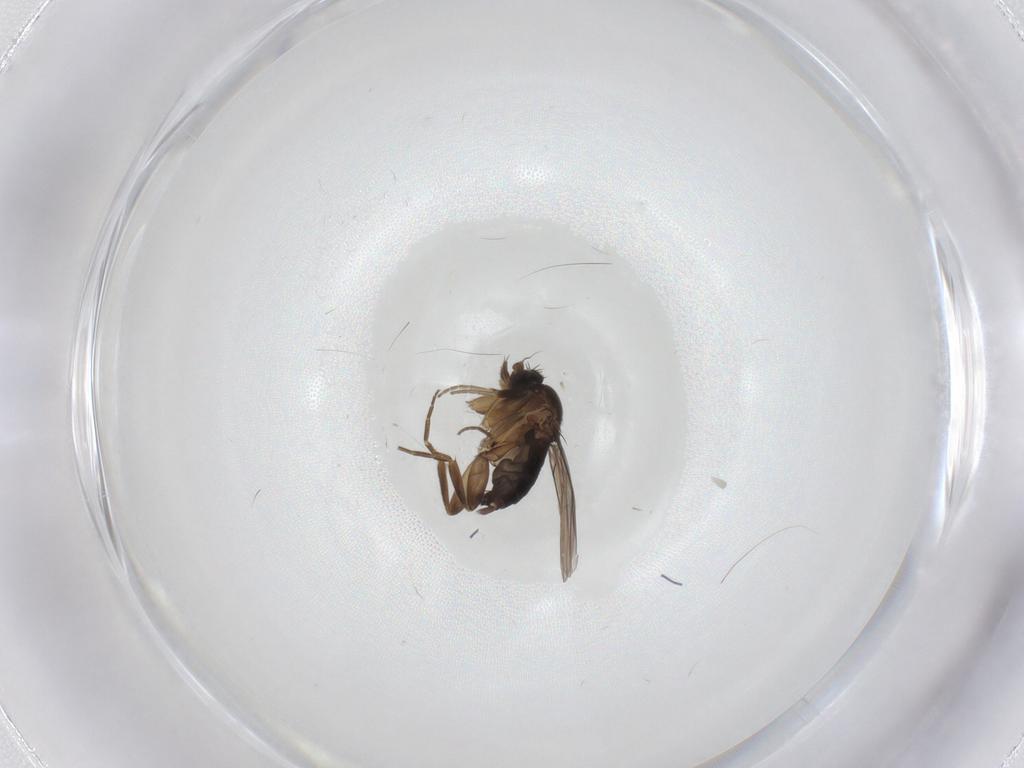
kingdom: Animalia
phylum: Arthropoda
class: Insecta
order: Diptera
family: Phoridae
